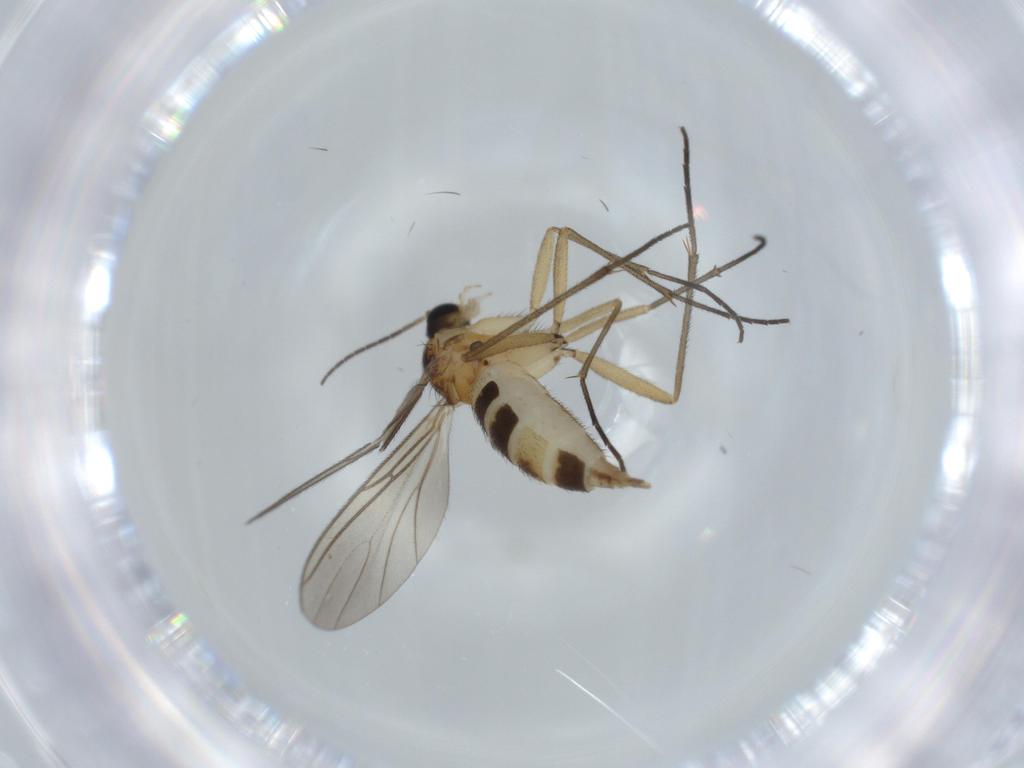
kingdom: Animalia
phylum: Arthropoda
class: Insecta
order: Diptera
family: Sciaridae
